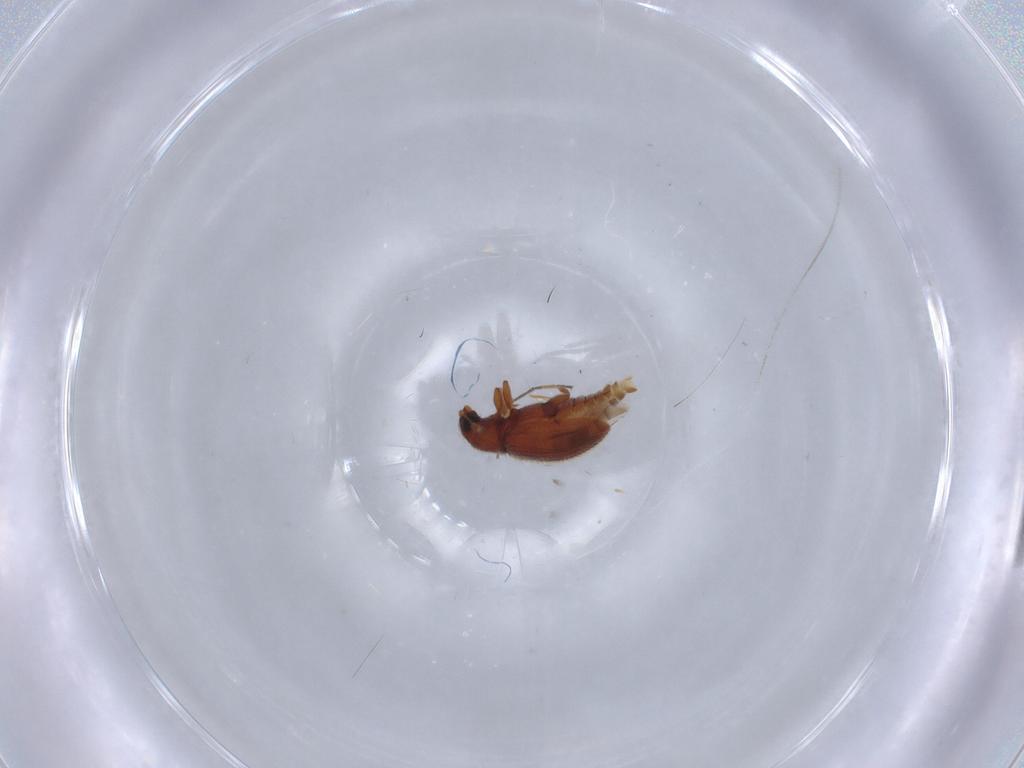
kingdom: Animalia
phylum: Arthropoda
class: Insecta
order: Coleoptera
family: Latridiidae
